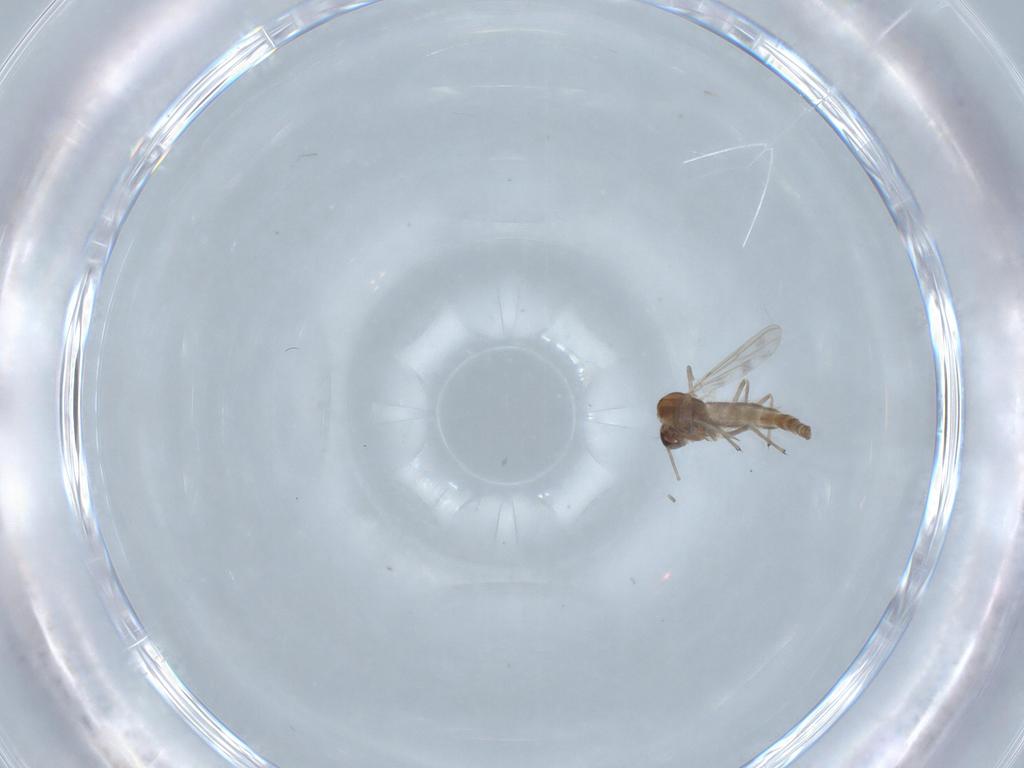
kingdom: Animalia
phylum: Arthropoda
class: Insecta
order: Diptera
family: Chironomidae
